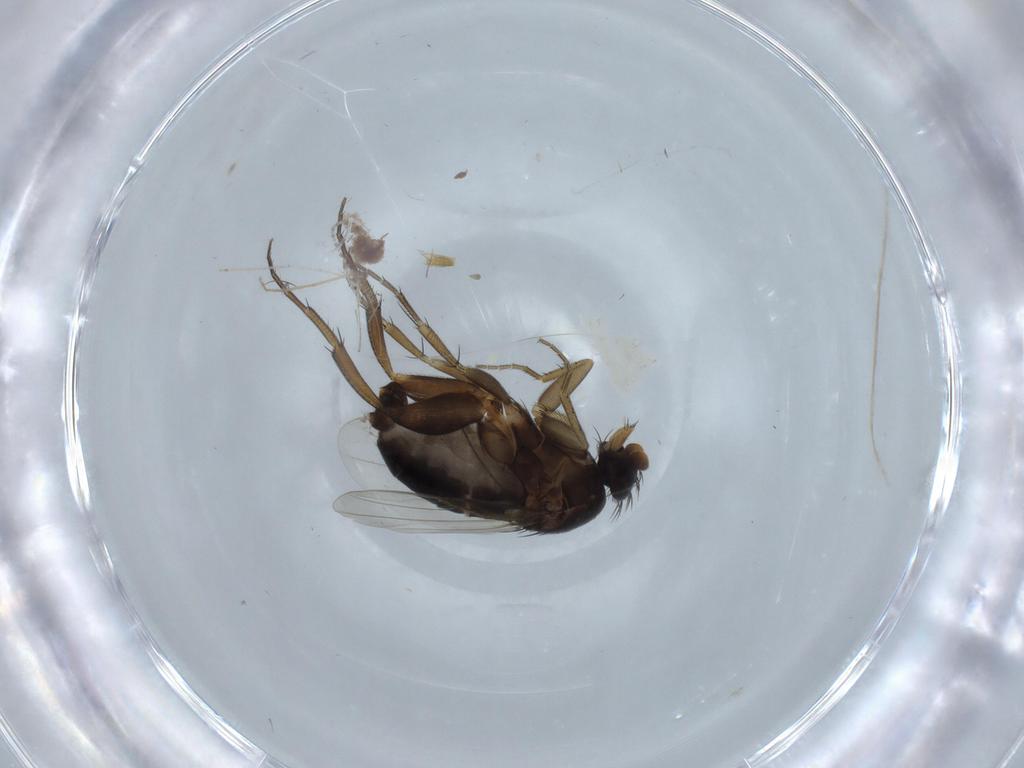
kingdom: Animalia
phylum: Arthropoda
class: Insecta
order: Diptera
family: Phoridae
